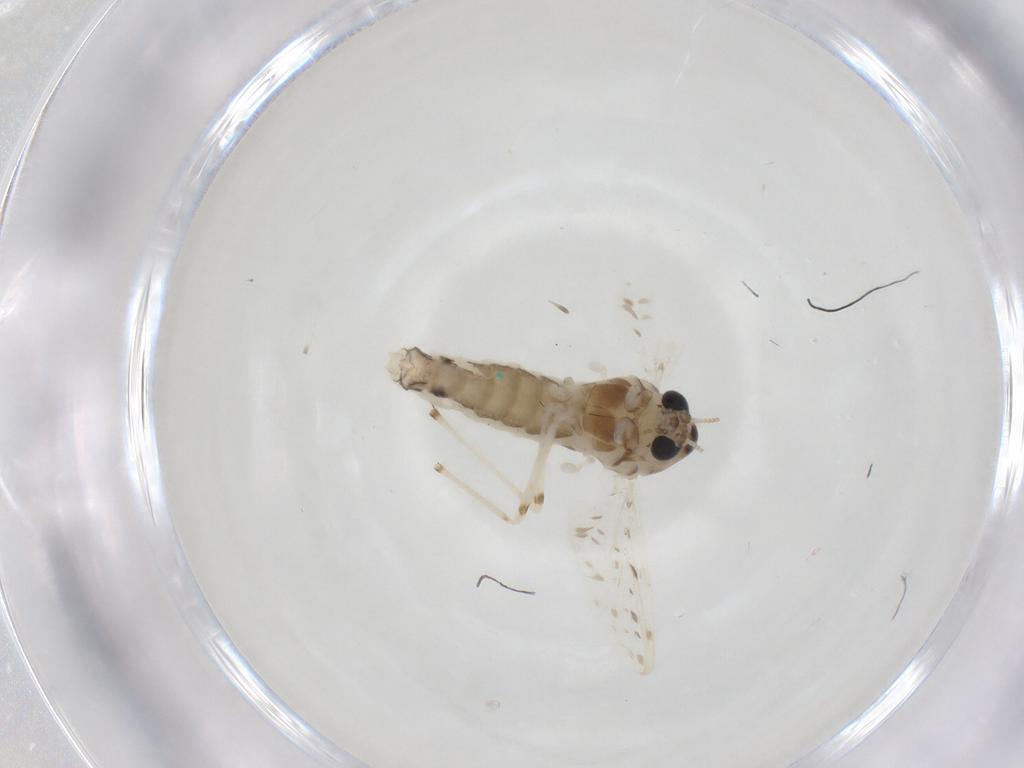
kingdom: Animalia
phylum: Arthropoda
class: Insecta
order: Diptera
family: Chironomidae
